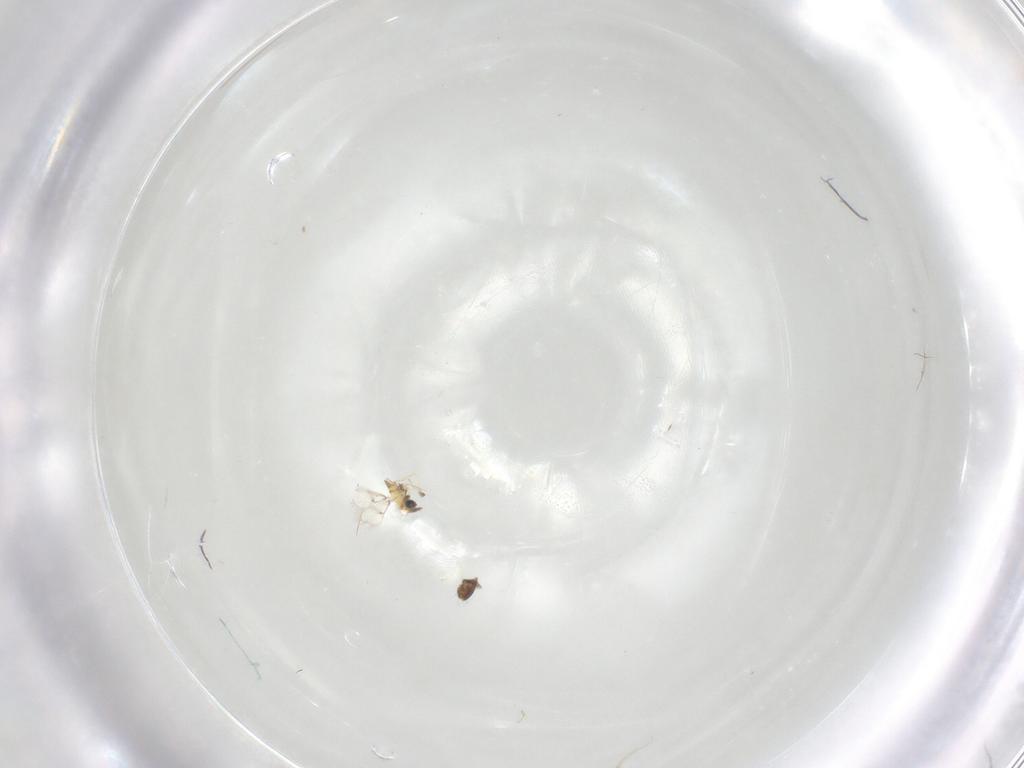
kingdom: Animalia
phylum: Arthropoda
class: Insecta
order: Hymenoptera
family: Trichogrammatidae
